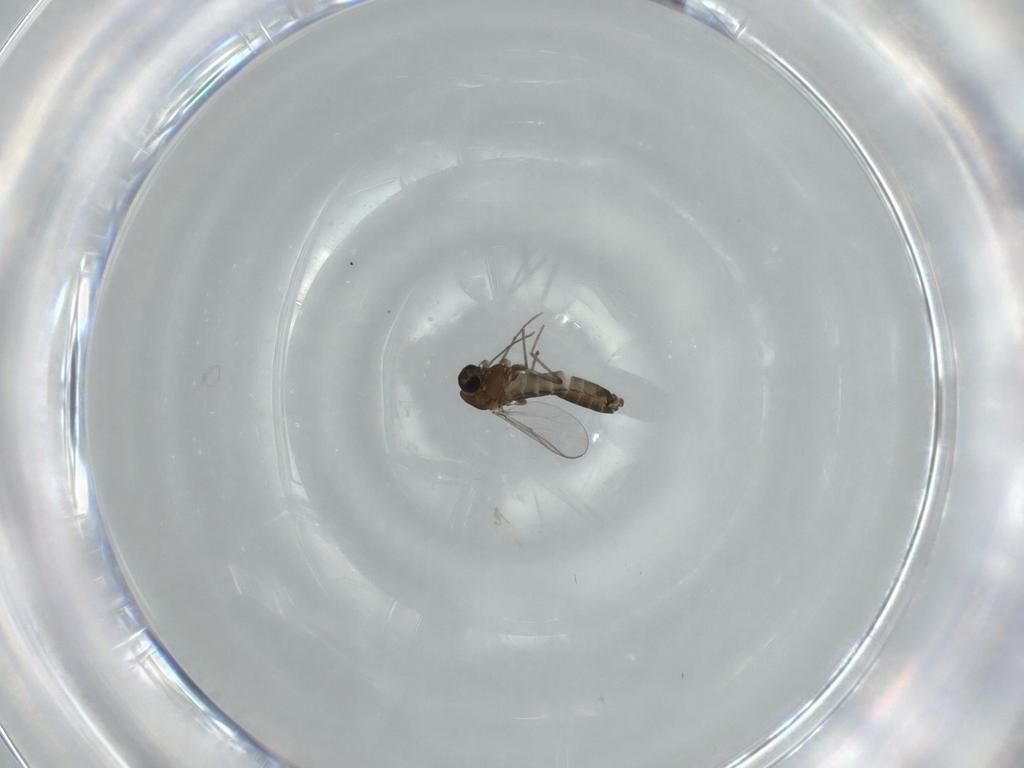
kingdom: Animalia
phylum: Arthropoda
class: Insecta
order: Diptera
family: Chironomidae
